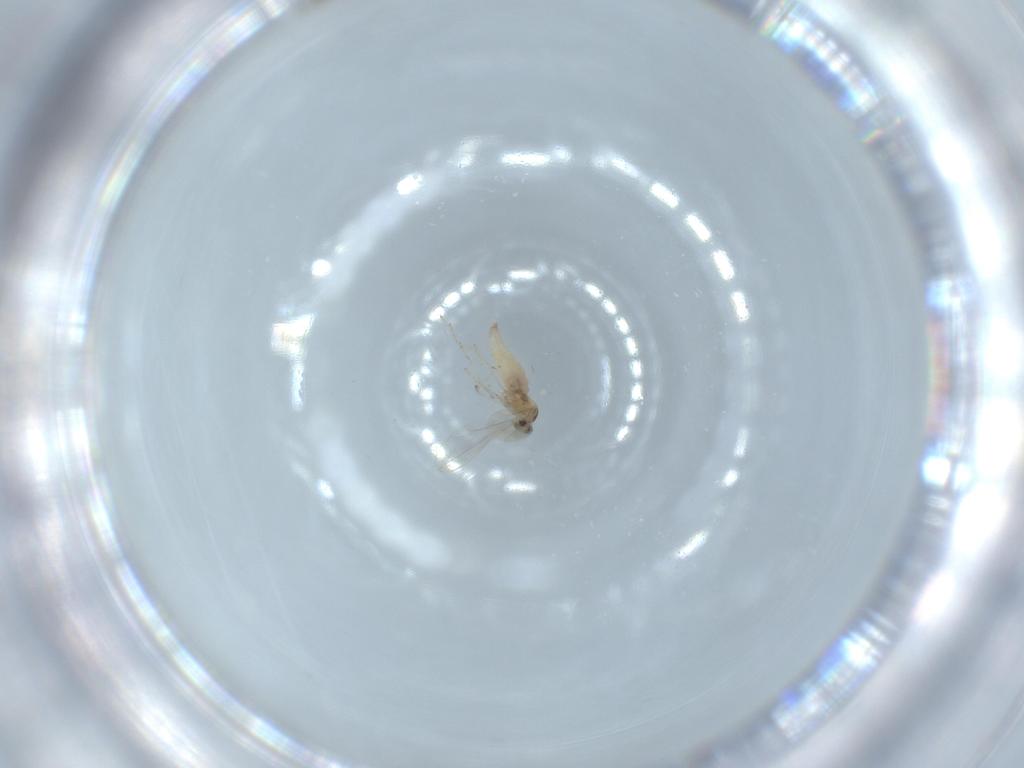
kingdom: Animalia
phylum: Arthropoda
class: Insecta
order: Diptera
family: Cecidomyiidae
